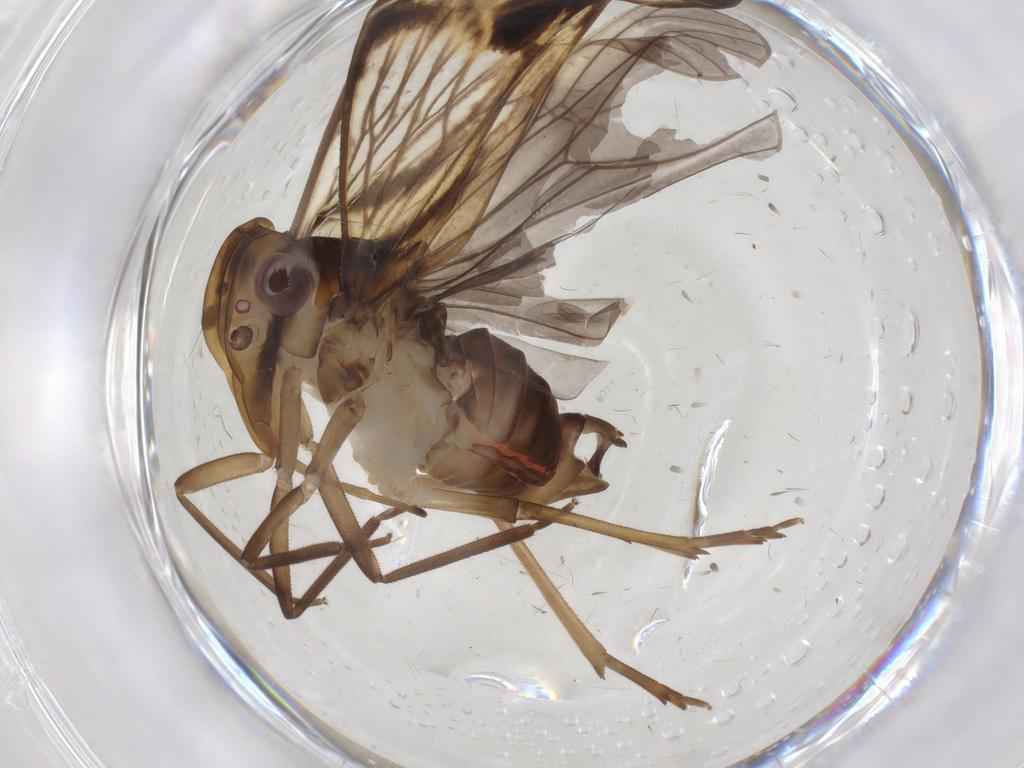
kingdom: Animalia
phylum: Arthropoda
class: Insecta
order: Hemiptera
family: Cixiidae
